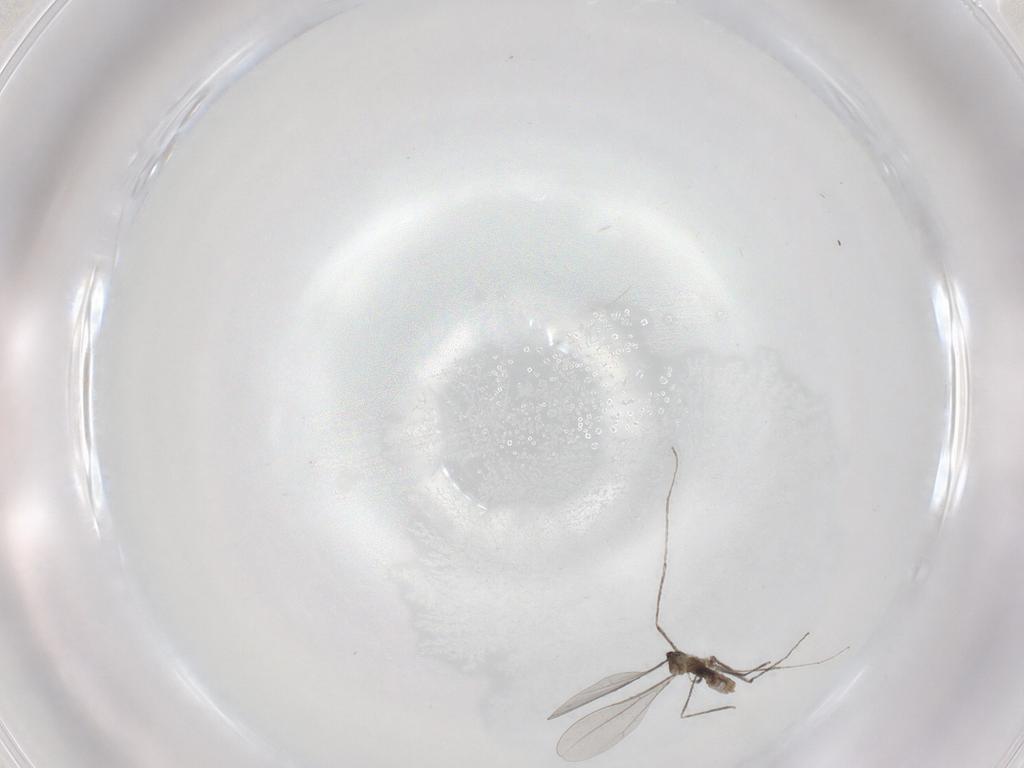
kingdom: Animalia
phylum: Arthropoda
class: Insecta
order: Diptera
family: Cecidomyiidae
